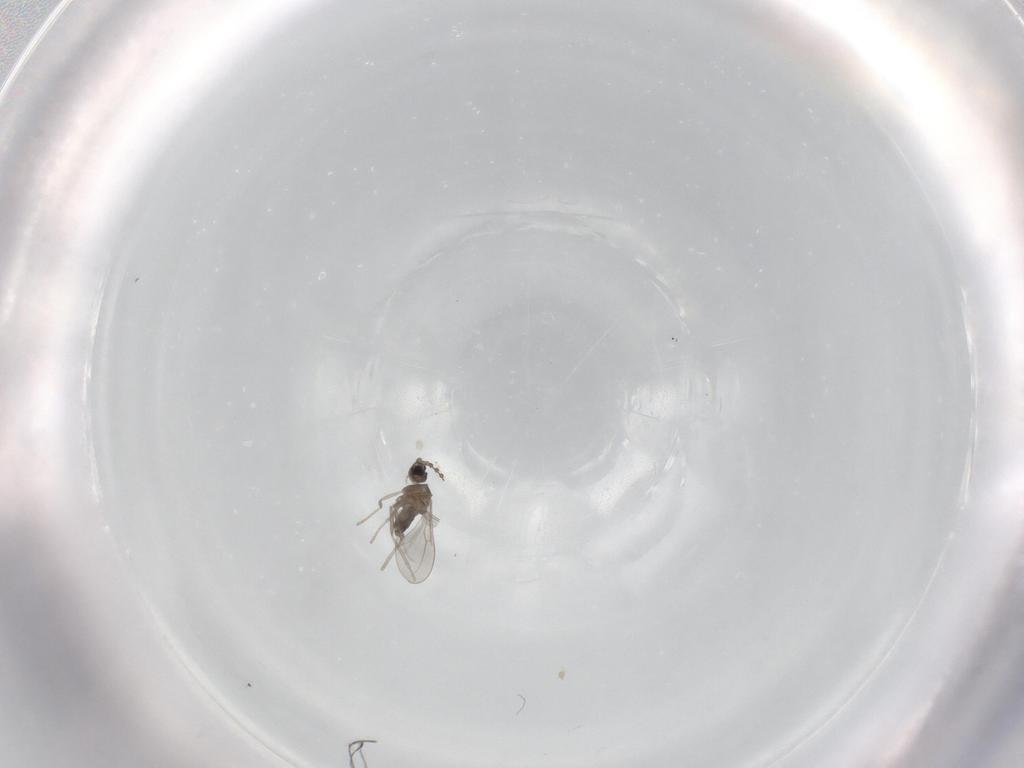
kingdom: Animalia
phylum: Arthropoda
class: Insecta
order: Diptera
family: Cecidomyiidae
